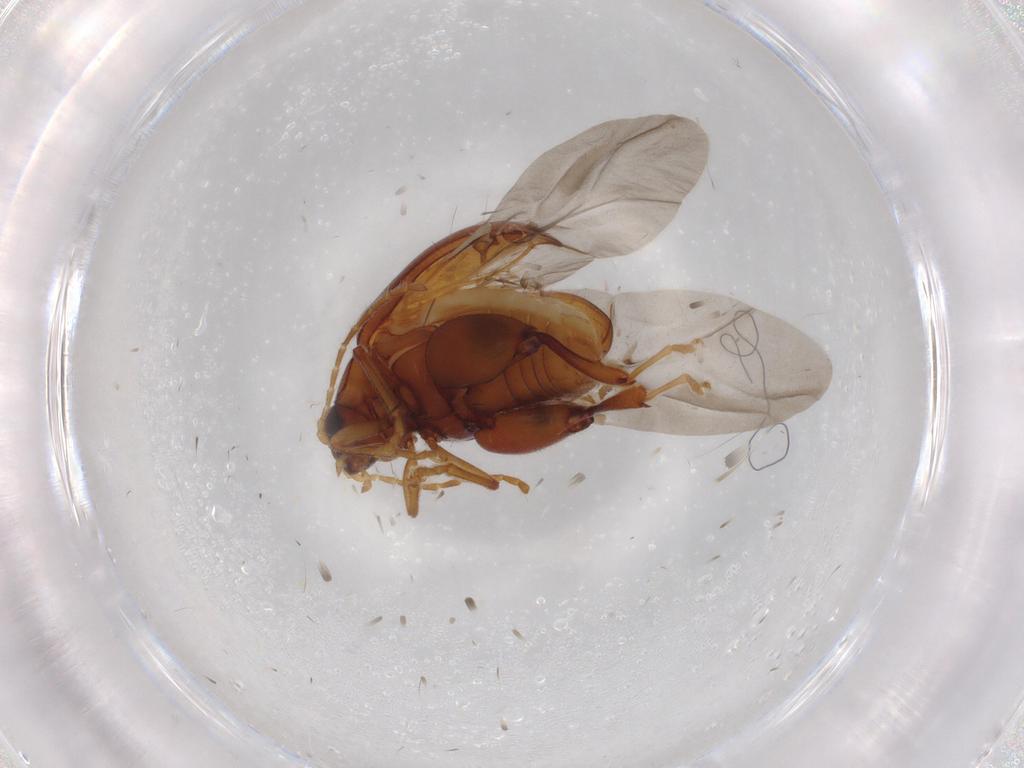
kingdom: Animalia
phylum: Arthropoda
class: Insecta
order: Coleoptera
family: Chrysomelidae
